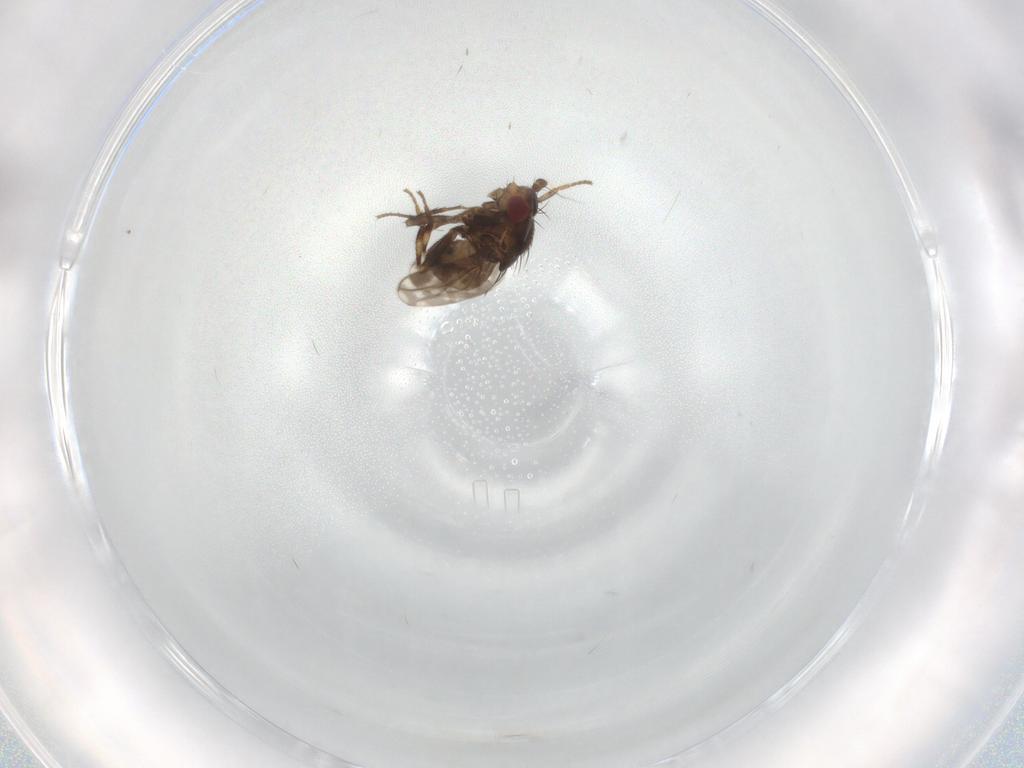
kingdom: Animalia
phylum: Arthropoda
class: Insecta
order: Diptera
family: Sphaeroceridae
